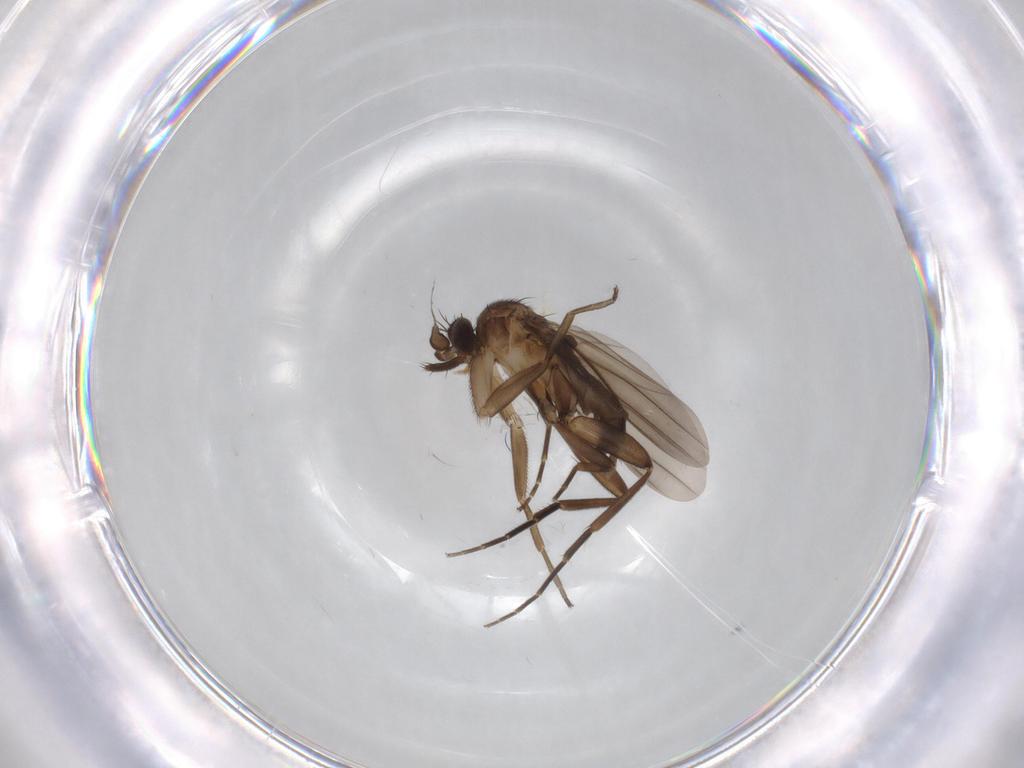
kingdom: Animalia
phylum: Arthropoda
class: Insecta
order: Diptera
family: Phoridae
